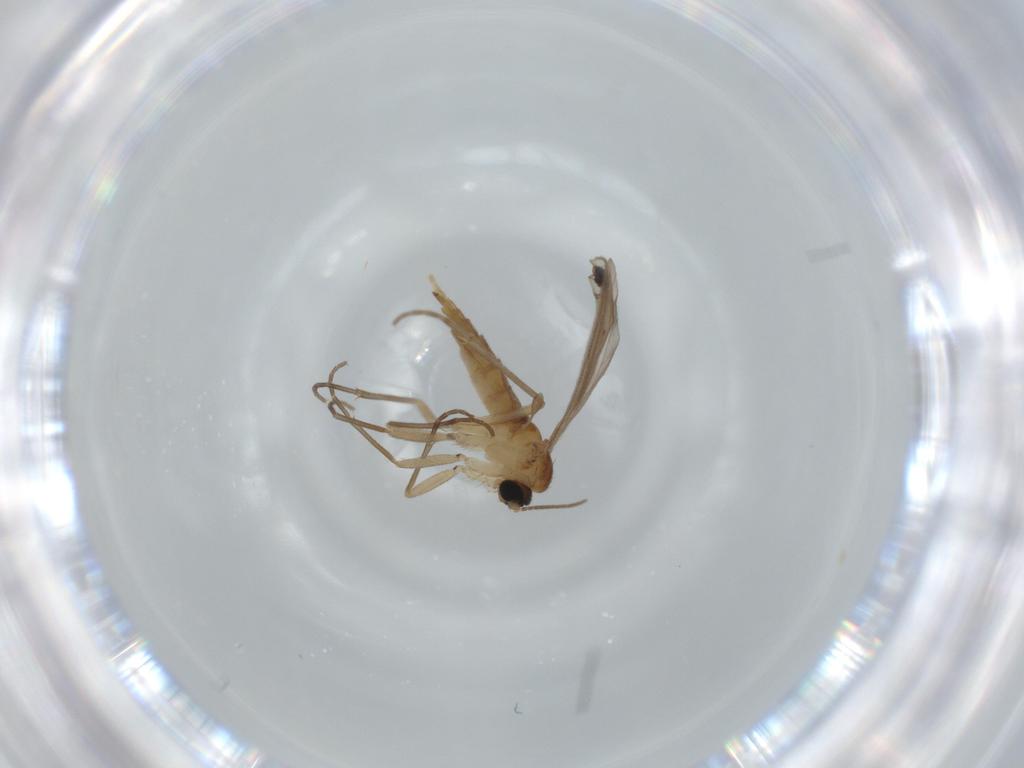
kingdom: Animalia
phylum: Arthropoda
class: Insecta
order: Diptera
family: Dolichopodidae
